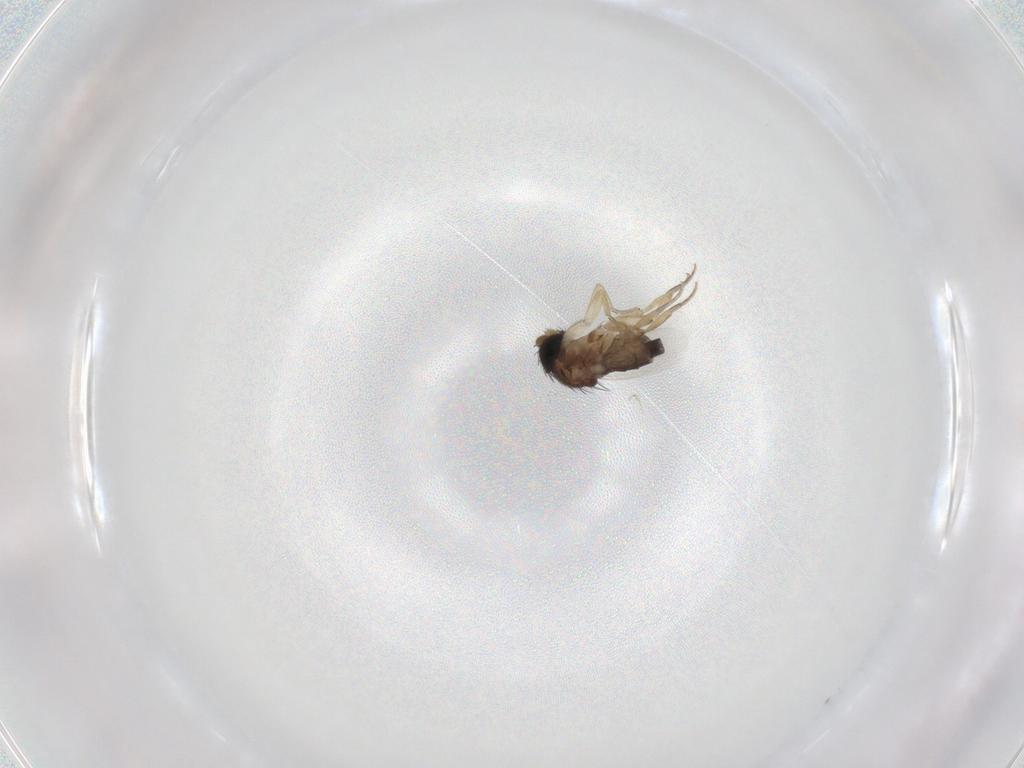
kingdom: Animalia
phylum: Arthropoda
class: Insecta
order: Diptera
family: Phoridae
